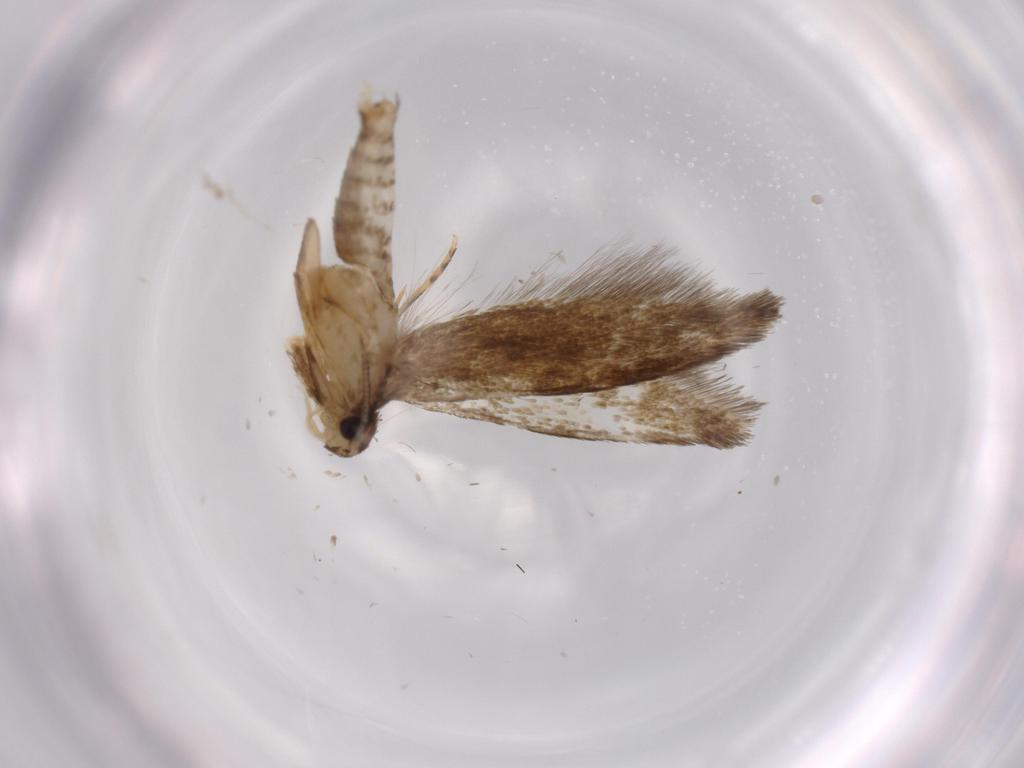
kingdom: Animalia
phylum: Arthropoda
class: Insecta
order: Lepidoptera
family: Tineidae
